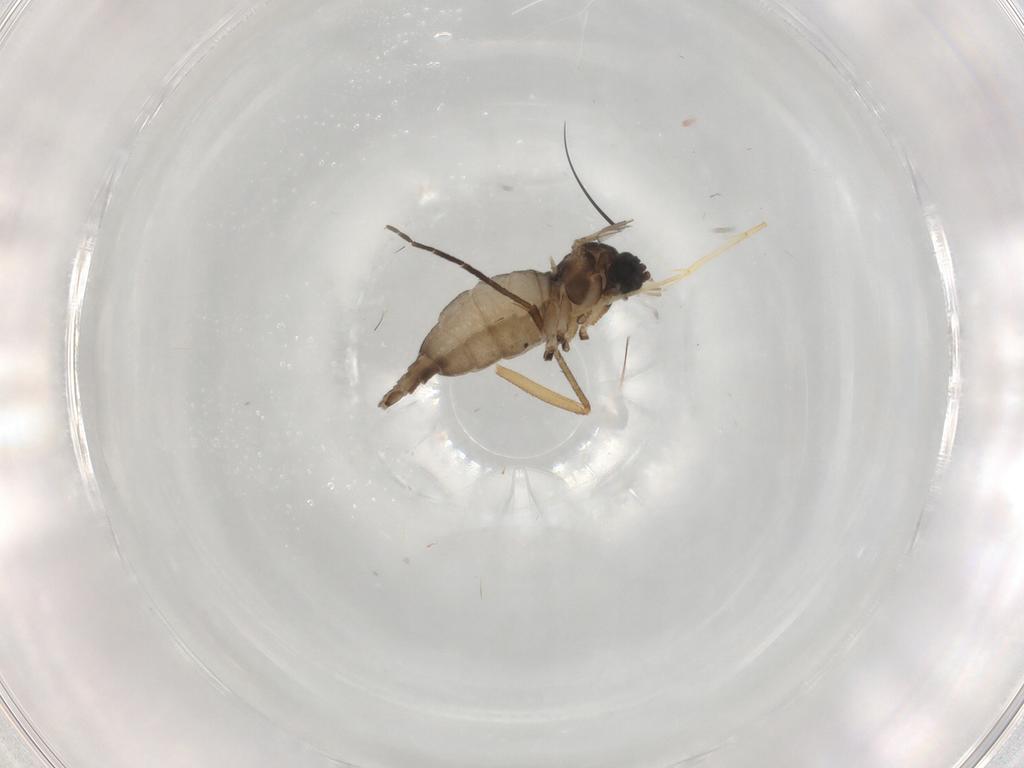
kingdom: Animalia
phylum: Arthropoda
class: Insecta
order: Diptera
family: Sciaridae
